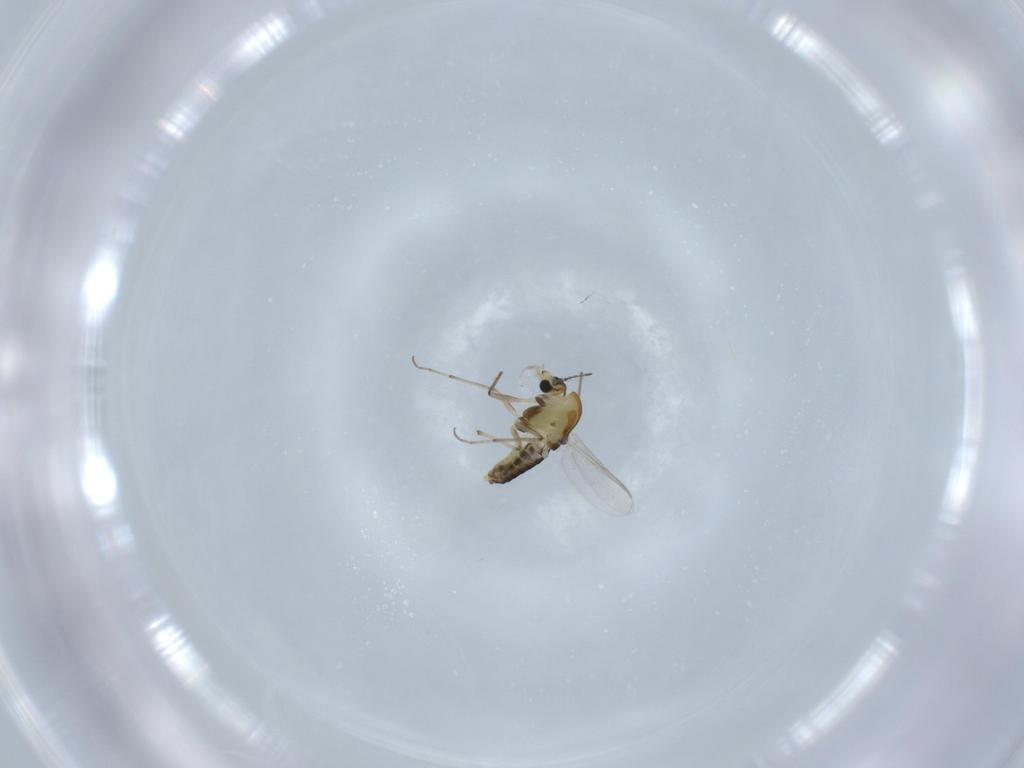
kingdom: Animalia
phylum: Arthropoda
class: Insecta
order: Diptera
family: Chironomidae
